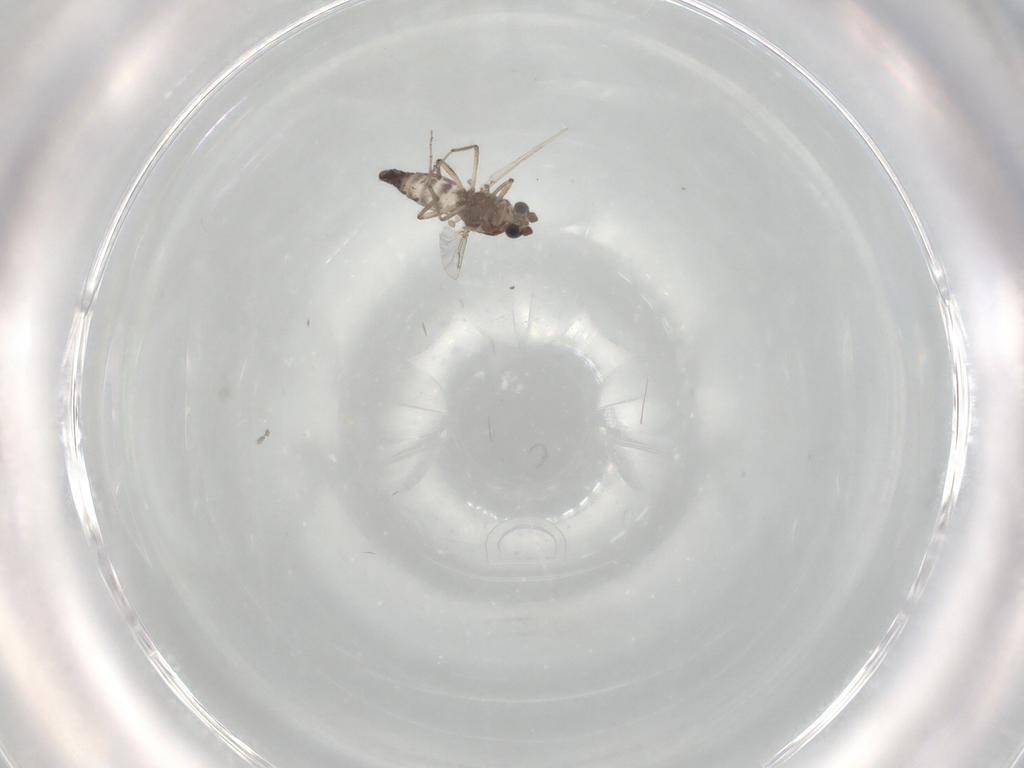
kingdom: Animalia
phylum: Arthropoda
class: Insecta
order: Diptera
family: Ceratopogonidae
